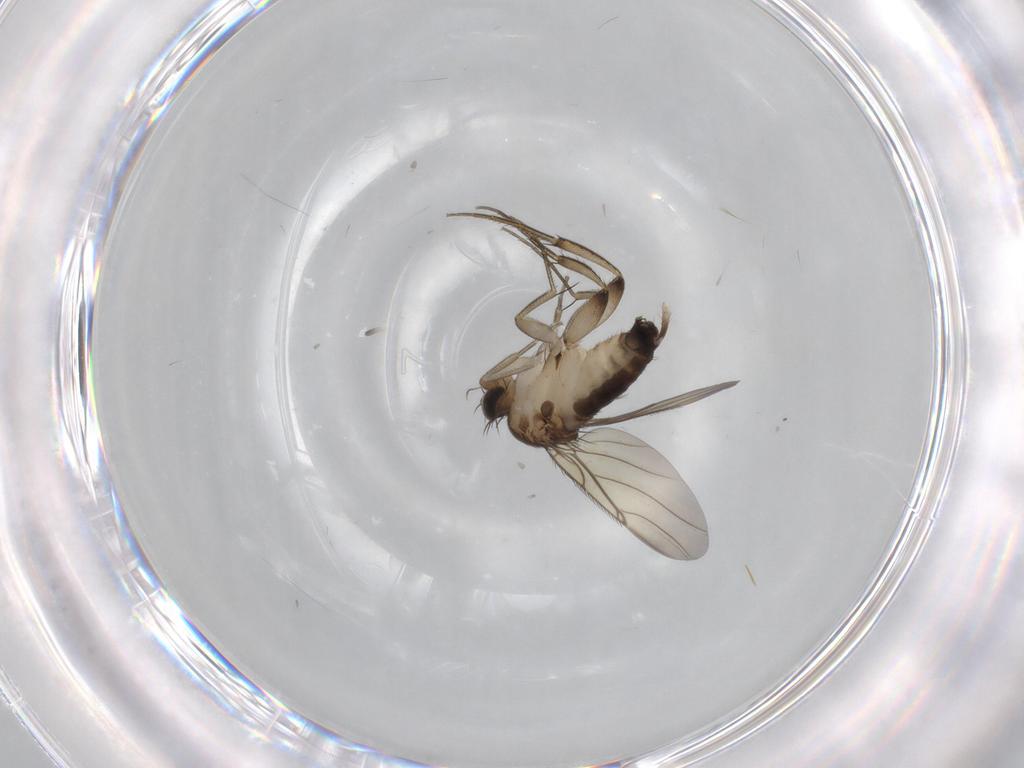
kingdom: Animalia
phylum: Arthropoda
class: Insecta
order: Diptera
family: Phoridae
